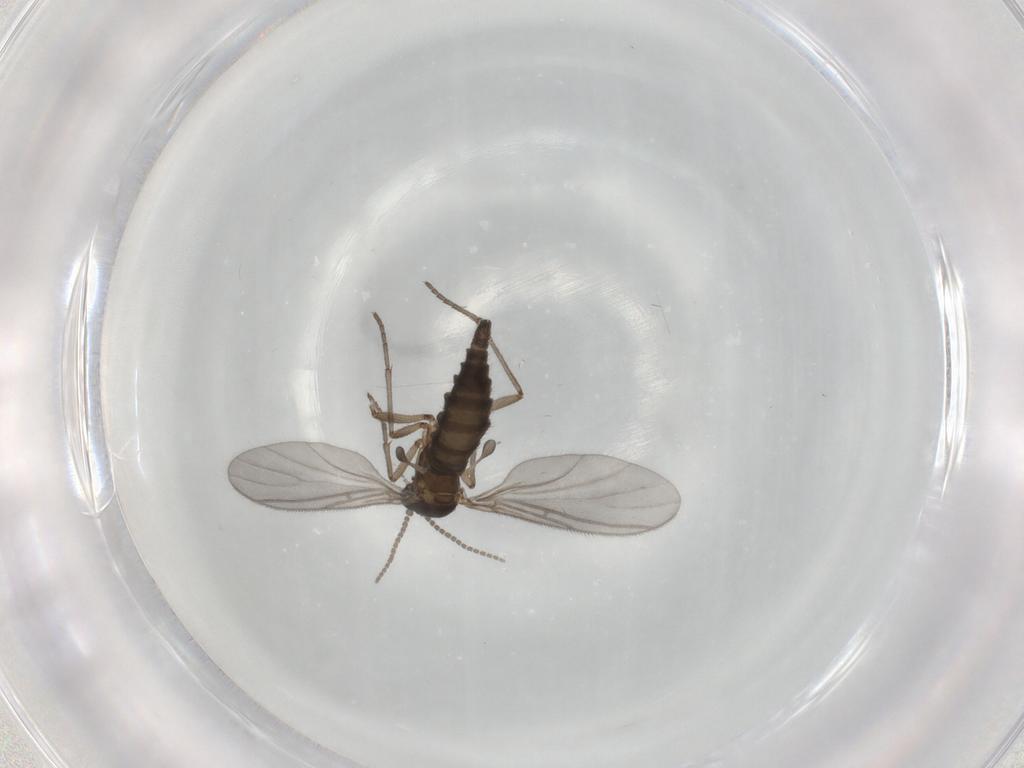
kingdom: Animalia
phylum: Arthropoda
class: Insecta
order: Diptera
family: Sciaridae
